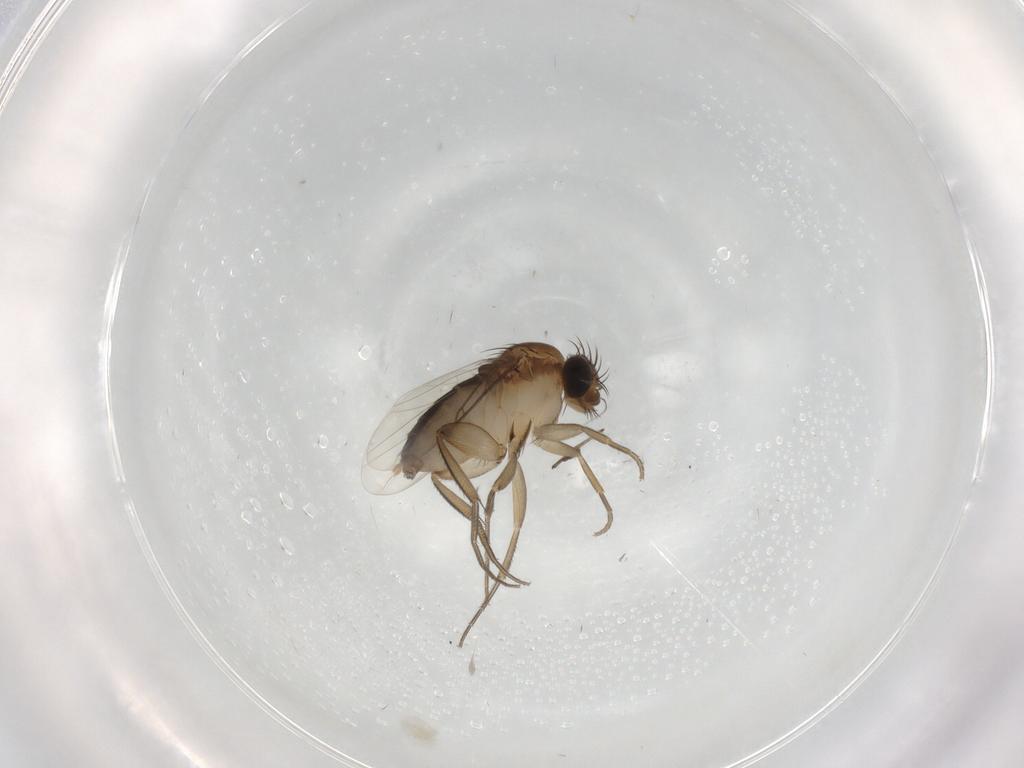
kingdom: Animalia
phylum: Arthropoda
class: Insecta
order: Diptera
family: Phoridae
